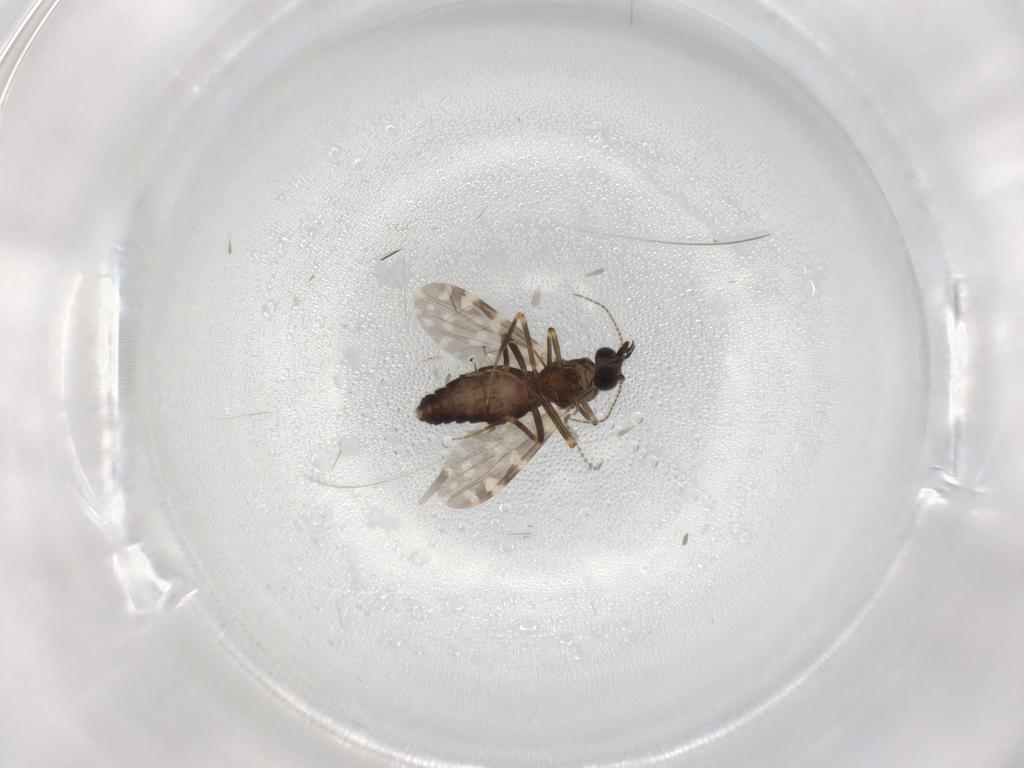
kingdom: Animalia
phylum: Arthropoda
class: Insecta
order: Diptera
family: Ceratopogonidae
